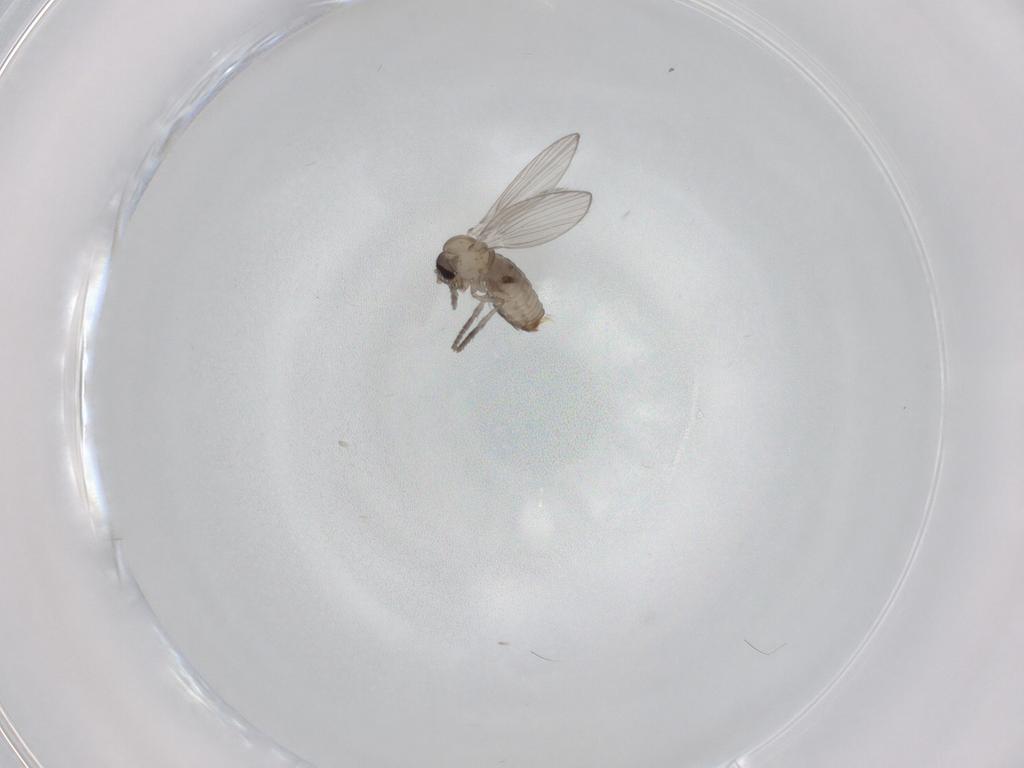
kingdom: Animalia
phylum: Arthropoda
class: Insecta
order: Diptera
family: Psychodidae
